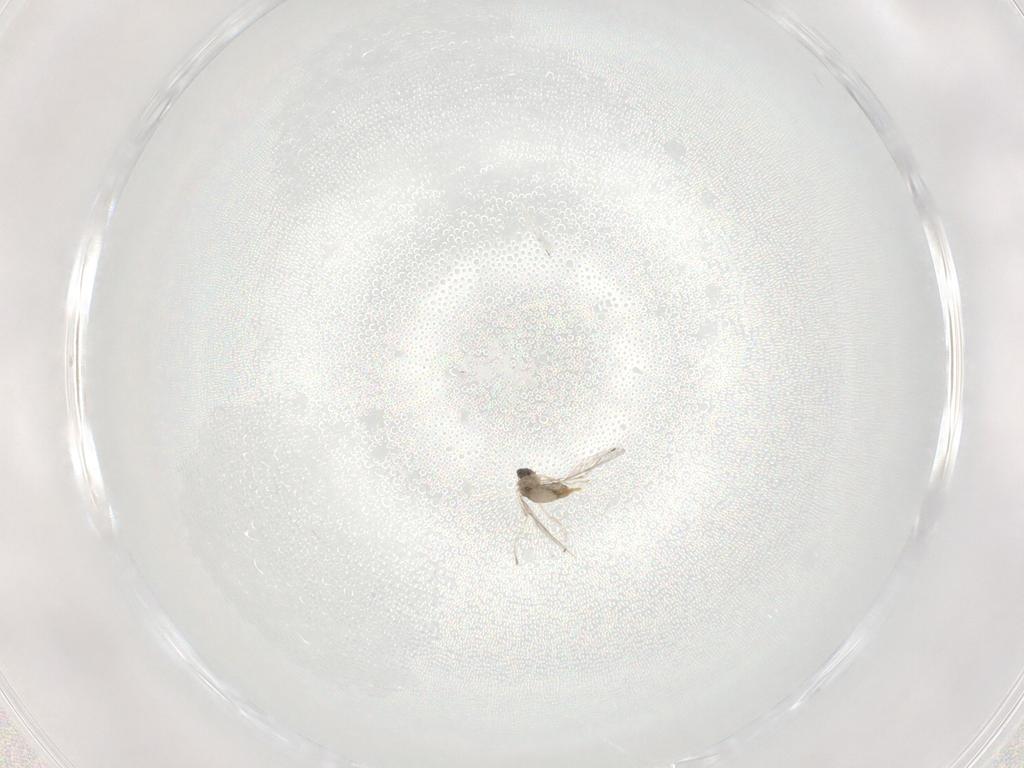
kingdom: Animalia
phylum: Arthropoda
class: Insecta
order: Diptera
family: Cecidomyiidae
